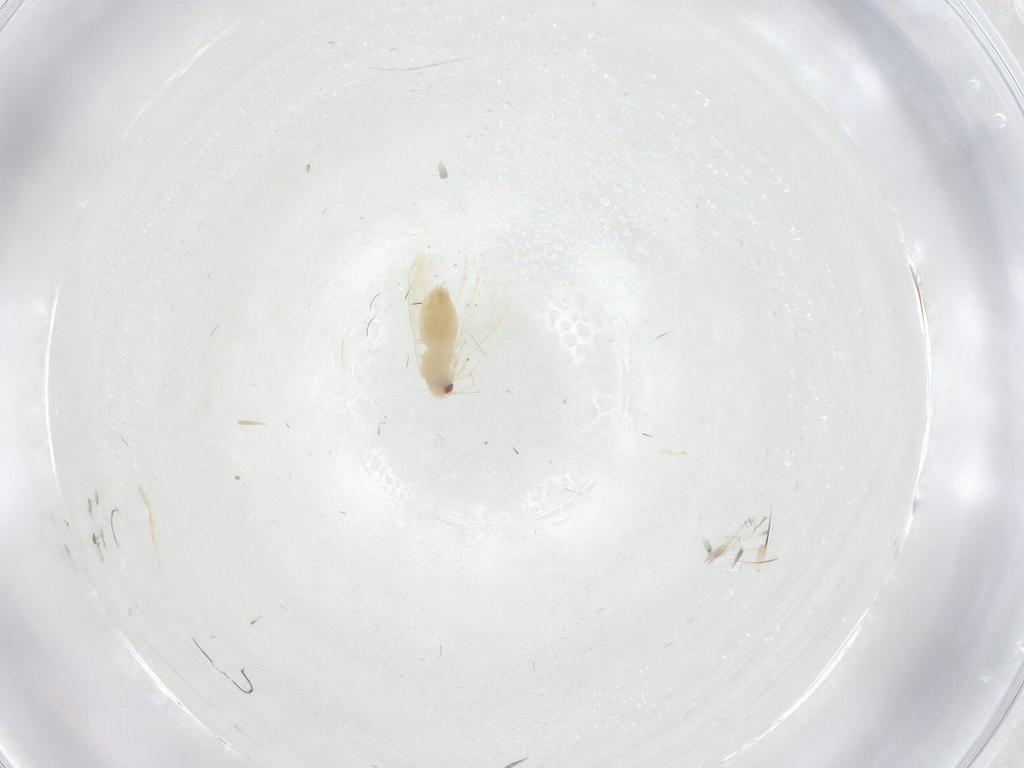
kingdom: Animalia
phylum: Arthropoda
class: Insecta
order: Hemiptera
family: Aleyrodidae
